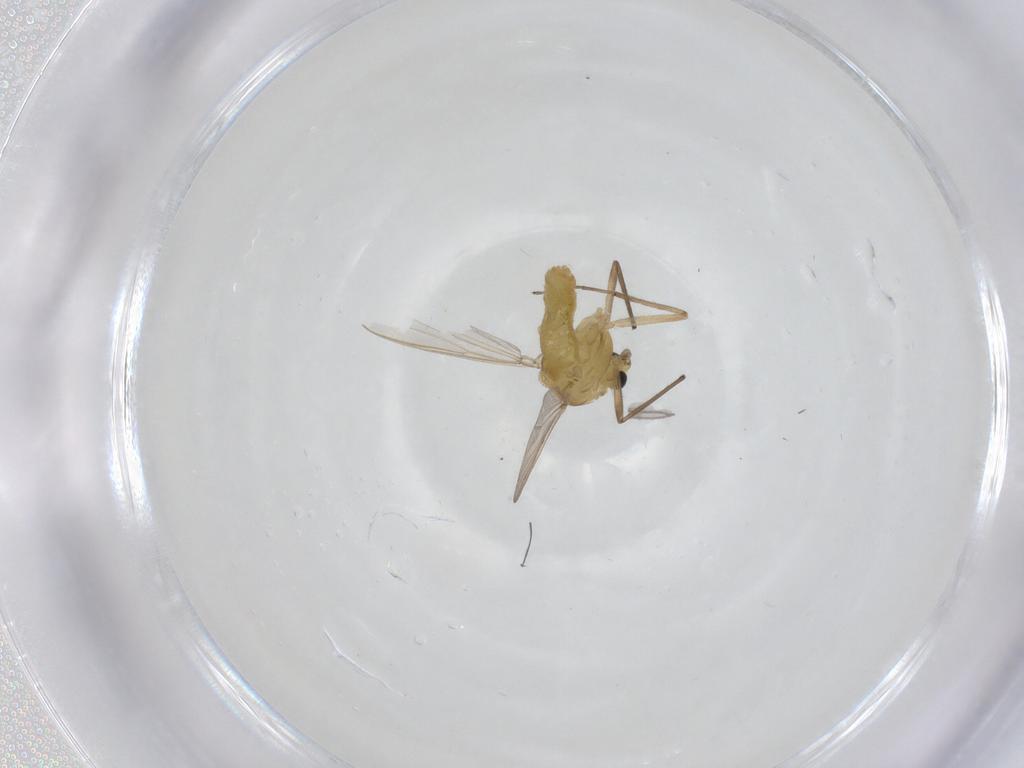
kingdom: Animalia
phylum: Arthropoda
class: Insecta
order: Diptera
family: Chironomidae
